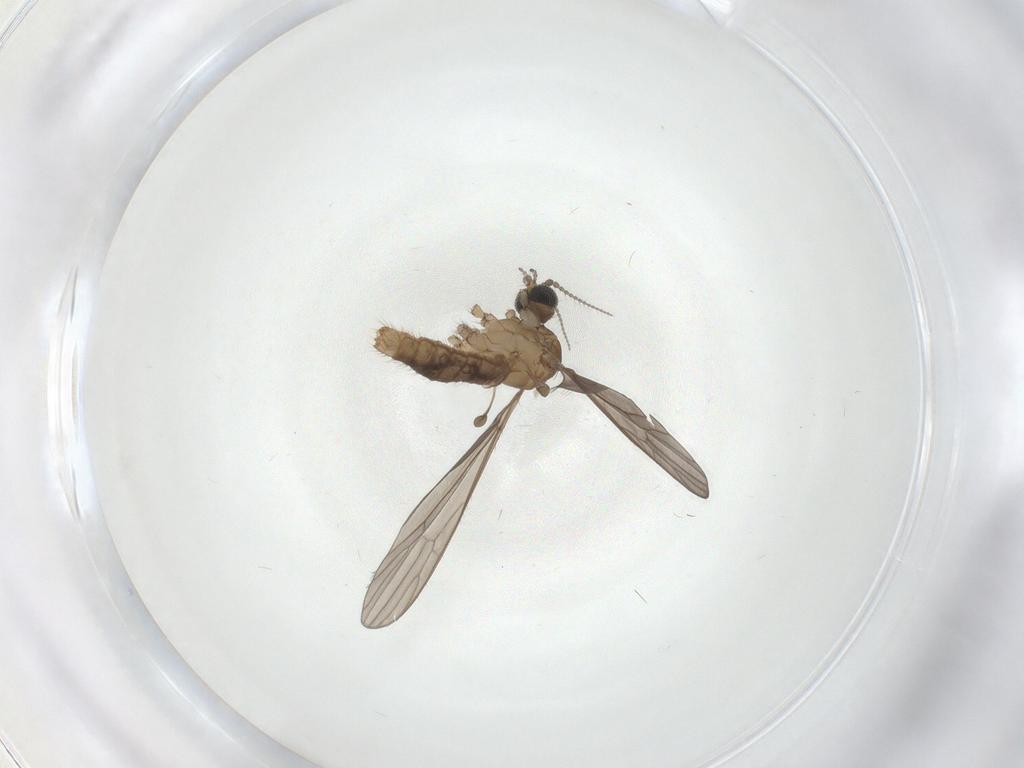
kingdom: Animalia
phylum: Arthropoda
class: Insecta
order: Diptera
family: Limoniidae
